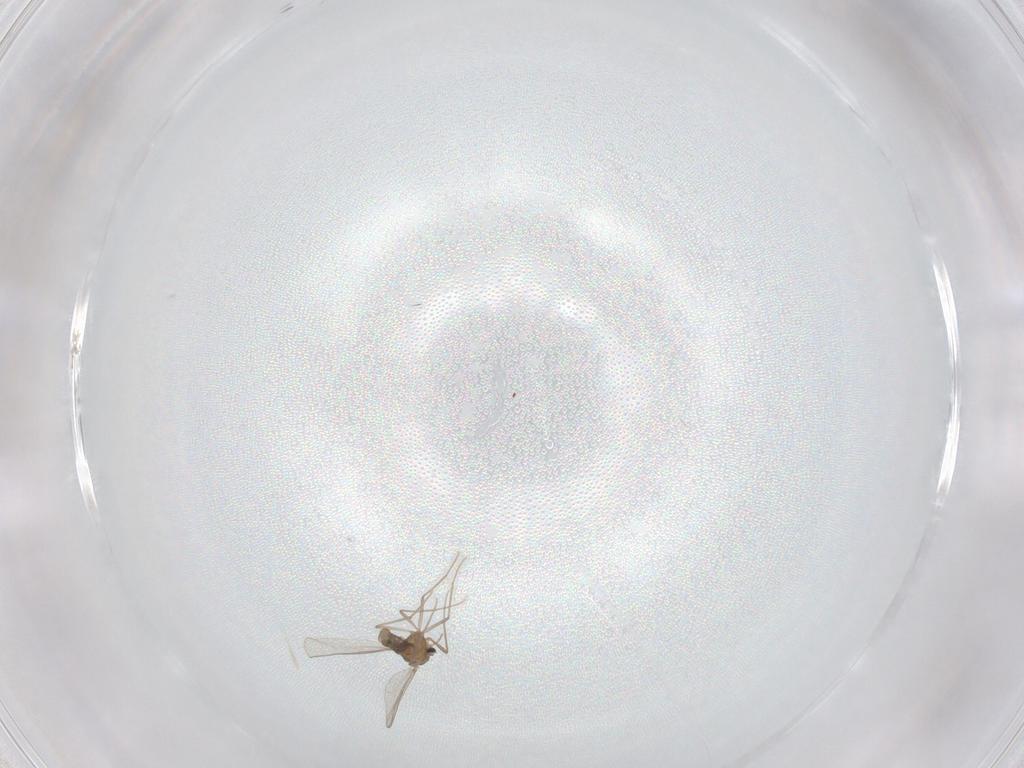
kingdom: Animalia
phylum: Arthropoda
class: Insecta
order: Diptera
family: Chironomidae
